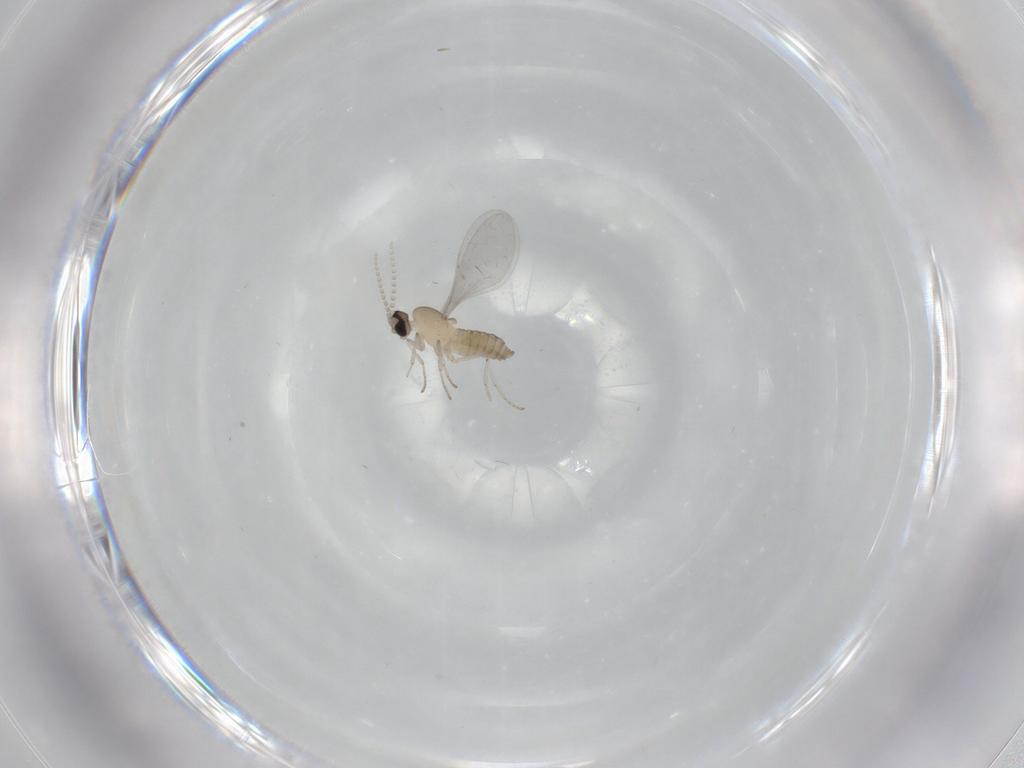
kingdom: Animalia
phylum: Arthropoda
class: Insecta
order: Diptera
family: Cecidomyiidae
